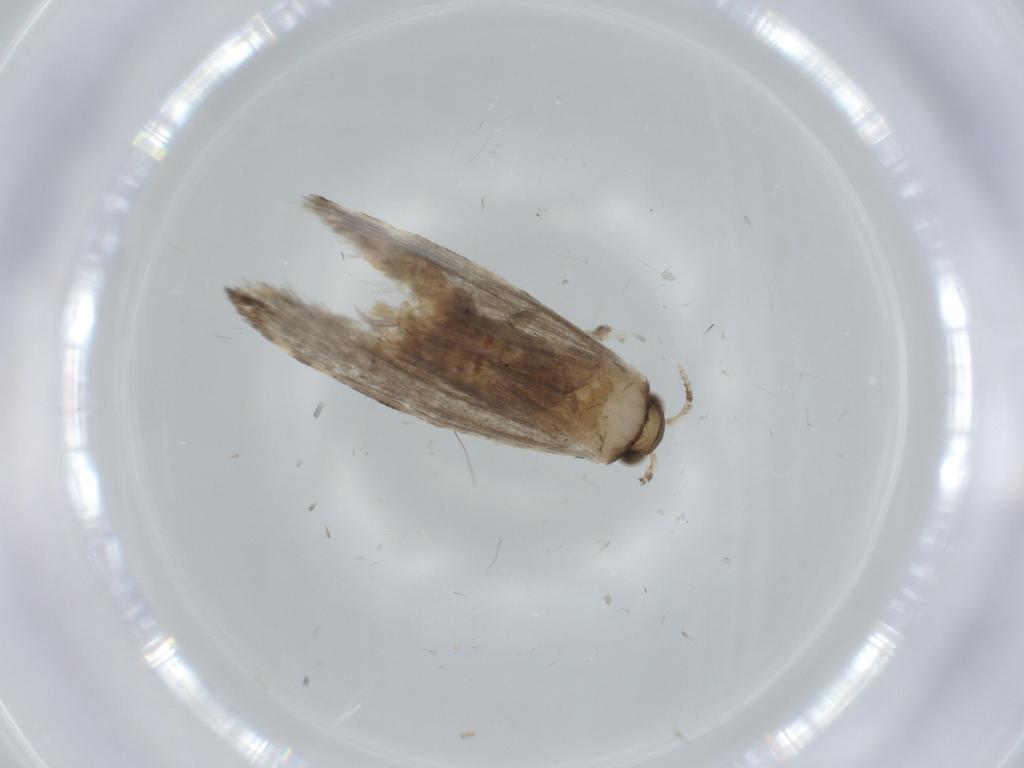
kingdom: Animalia
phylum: Arthropoda
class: Insecta
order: Lepidoptera
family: Tineidae
